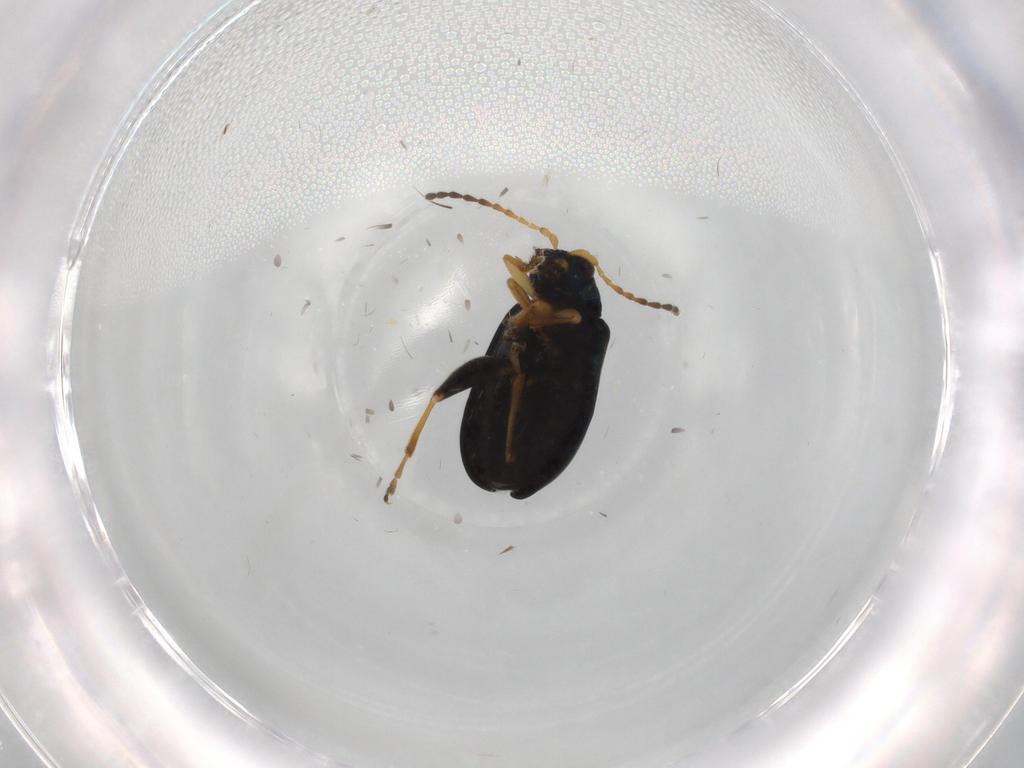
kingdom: Animalia
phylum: Arthropoda
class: Insecta
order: Coleoptera
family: Chrysomelidae
